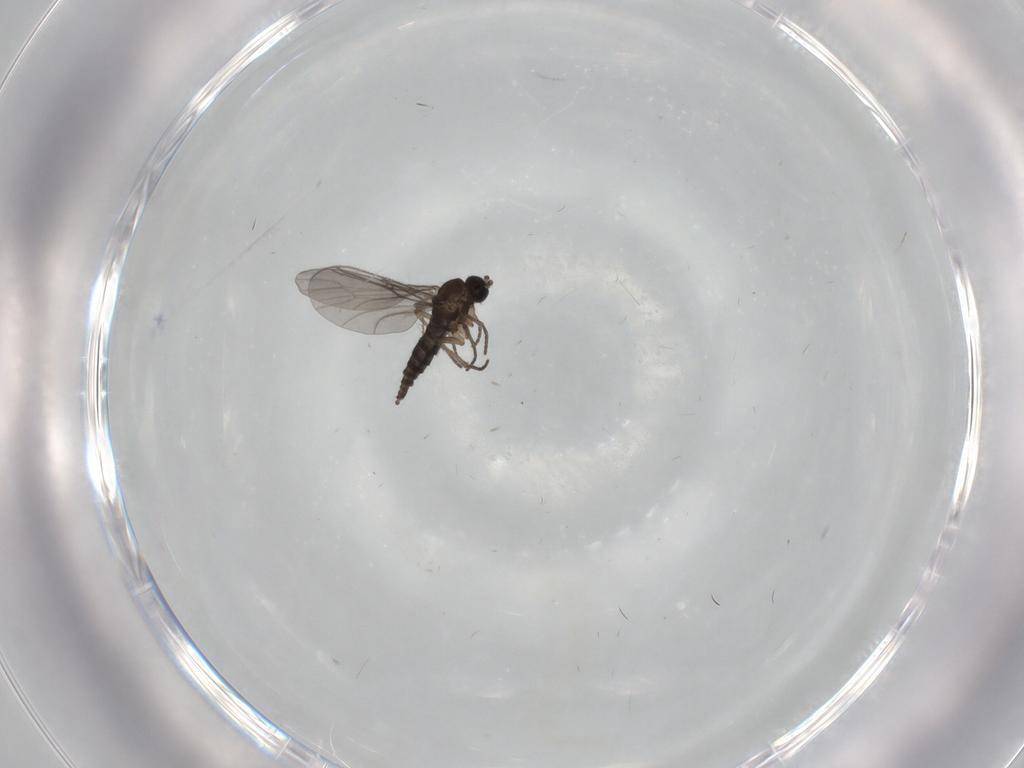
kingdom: Animalia
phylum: Arthropoda
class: Insecta
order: Diptera
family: Sciaridae
